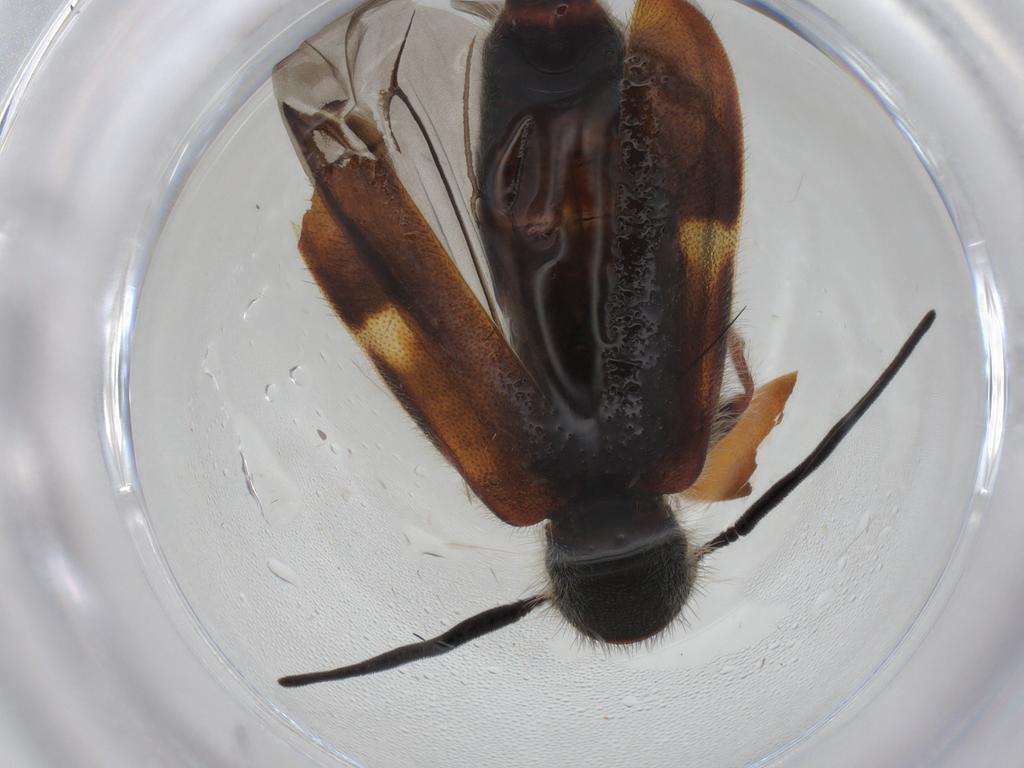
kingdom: Animalia
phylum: Arthropoda
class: Insecta
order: Coleoptera
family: Cleridae
